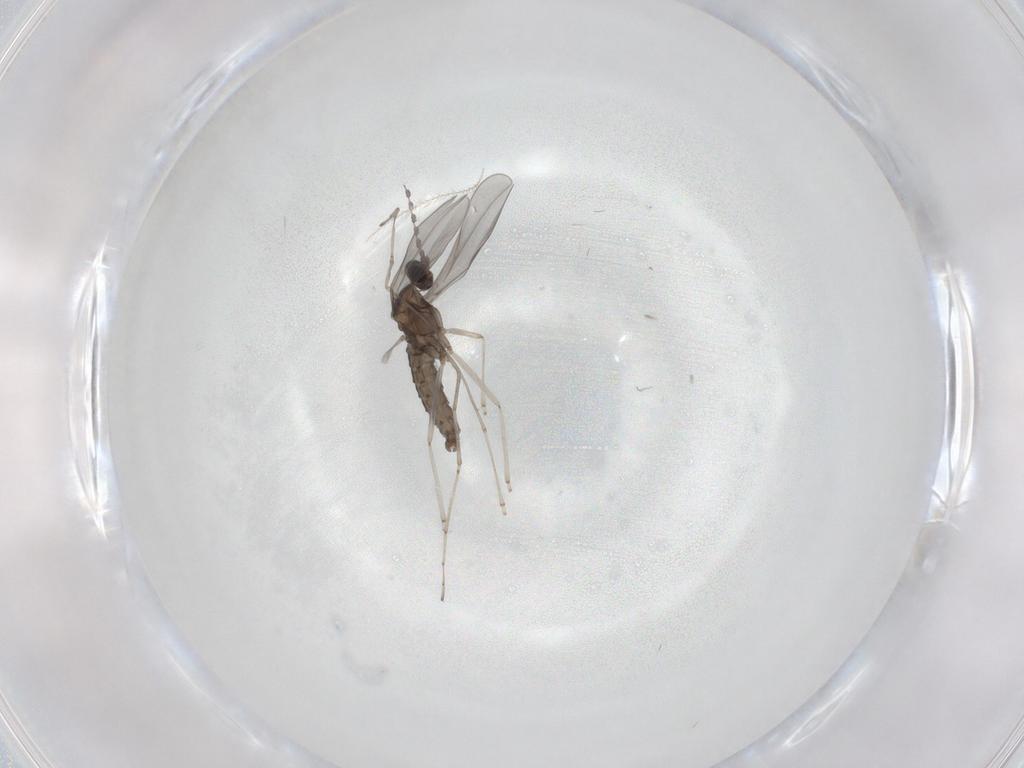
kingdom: Animalia
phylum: Arthropoda
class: Insecta
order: Diptera
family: Cecidomyiidae
